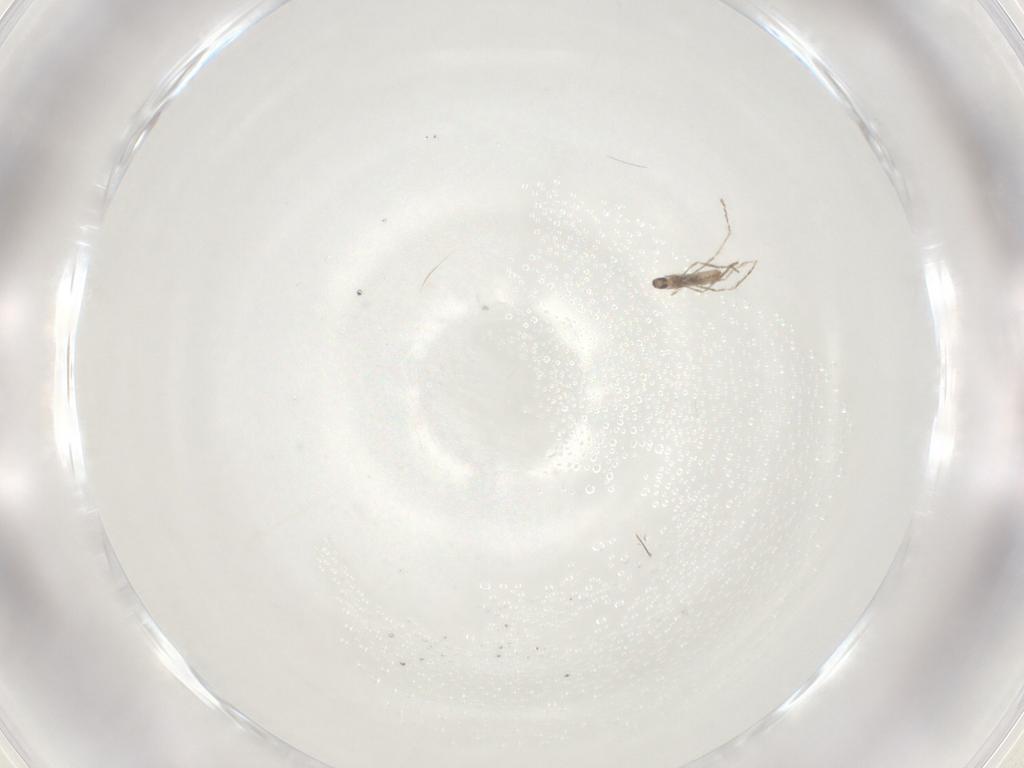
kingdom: Animalia
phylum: Arthropoda
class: Insecta
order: Diptera
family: Cecidomyiidae
